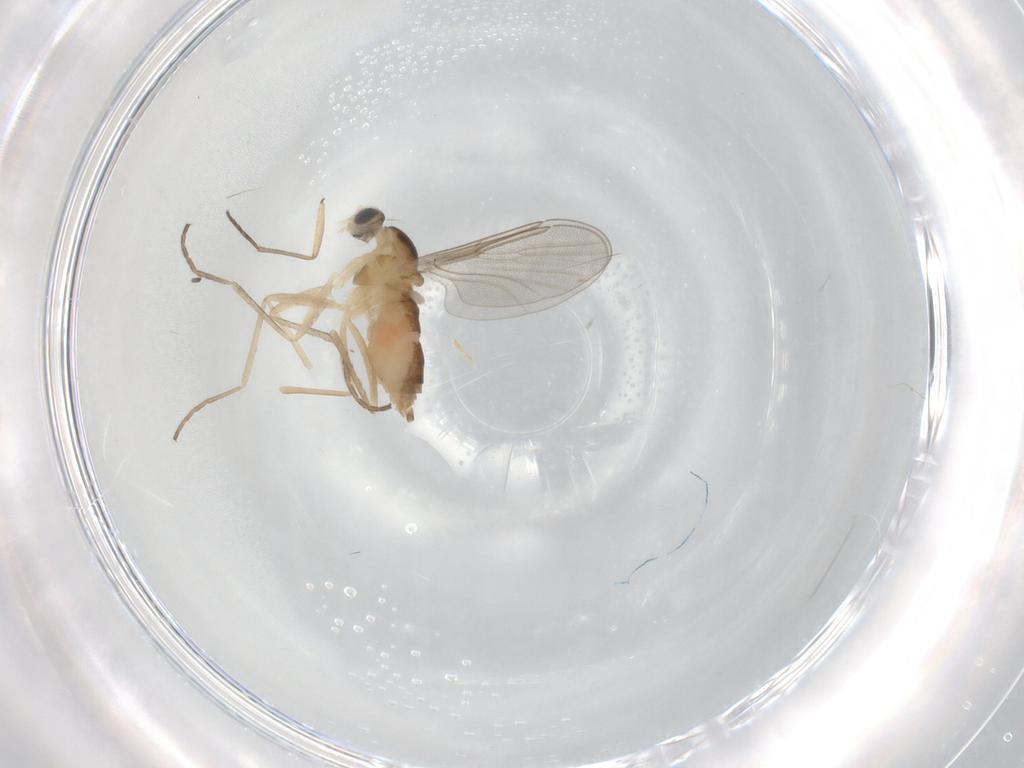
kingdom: Animalia
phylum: Arthropoda
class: Insecta
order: Diptera
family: Cecidomyiidae
